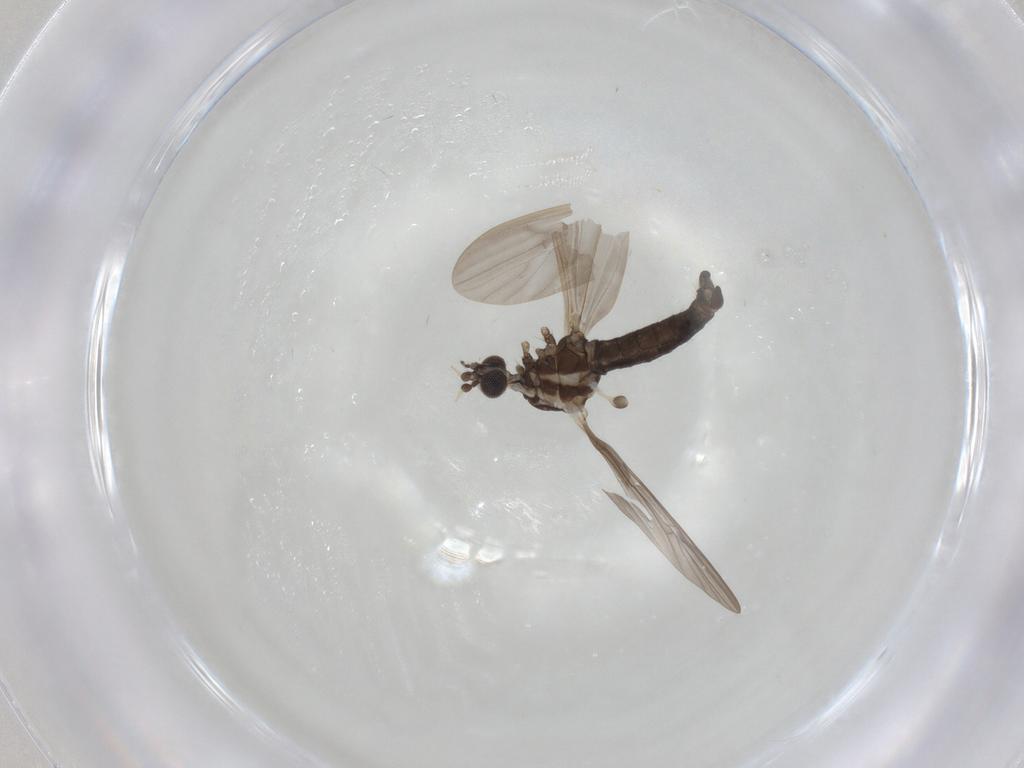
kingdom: Animalia
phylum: Arthropoda
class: Insecta
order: Diptera
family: Limoniidae
